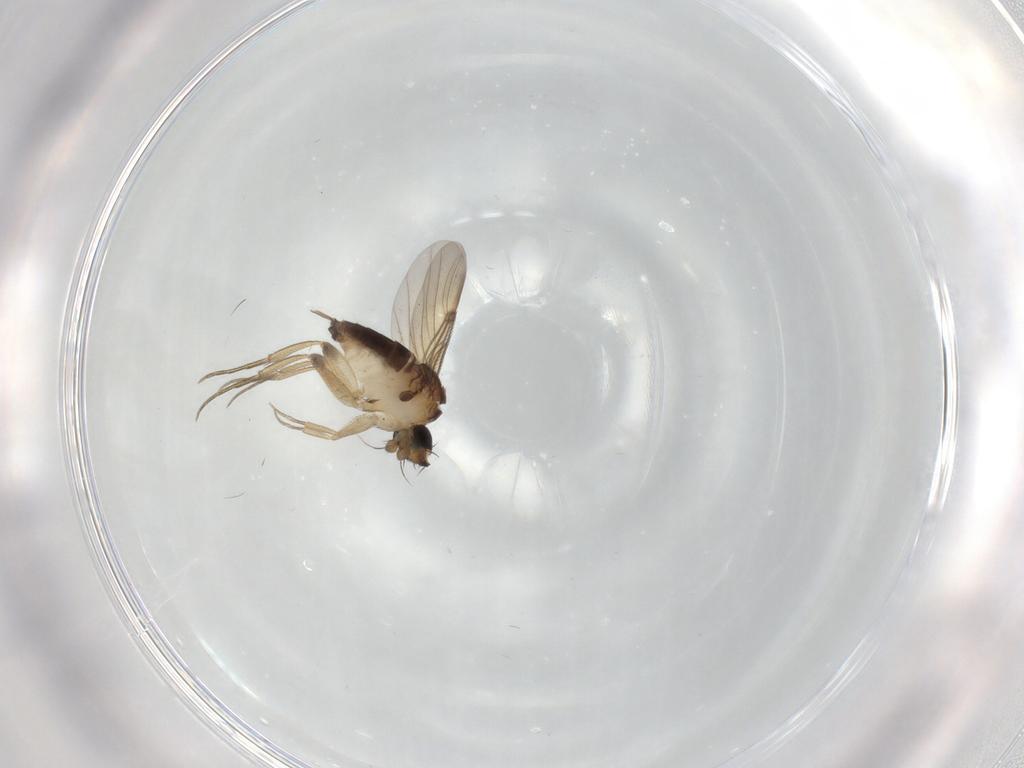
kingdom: Animalia
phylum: Arthropoda
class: Insecta
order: Diptera
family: Phoridae
